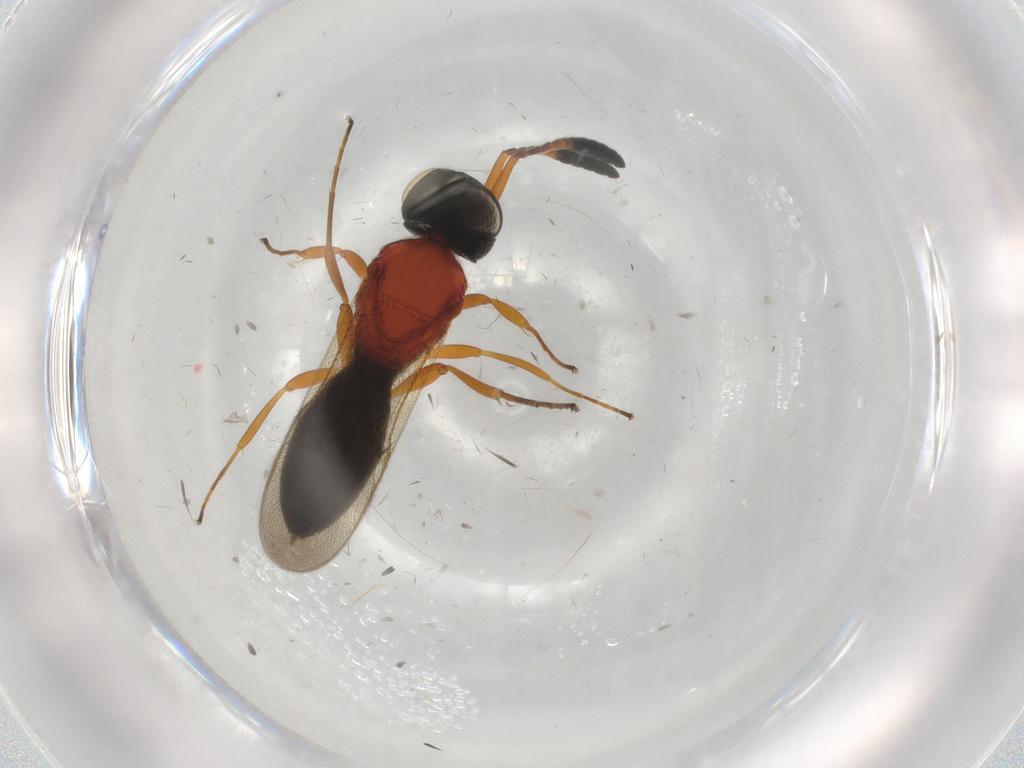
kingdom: Animalia
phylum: Arthropoda
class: Insecta
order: Hymenoptera
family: Scelionidae
